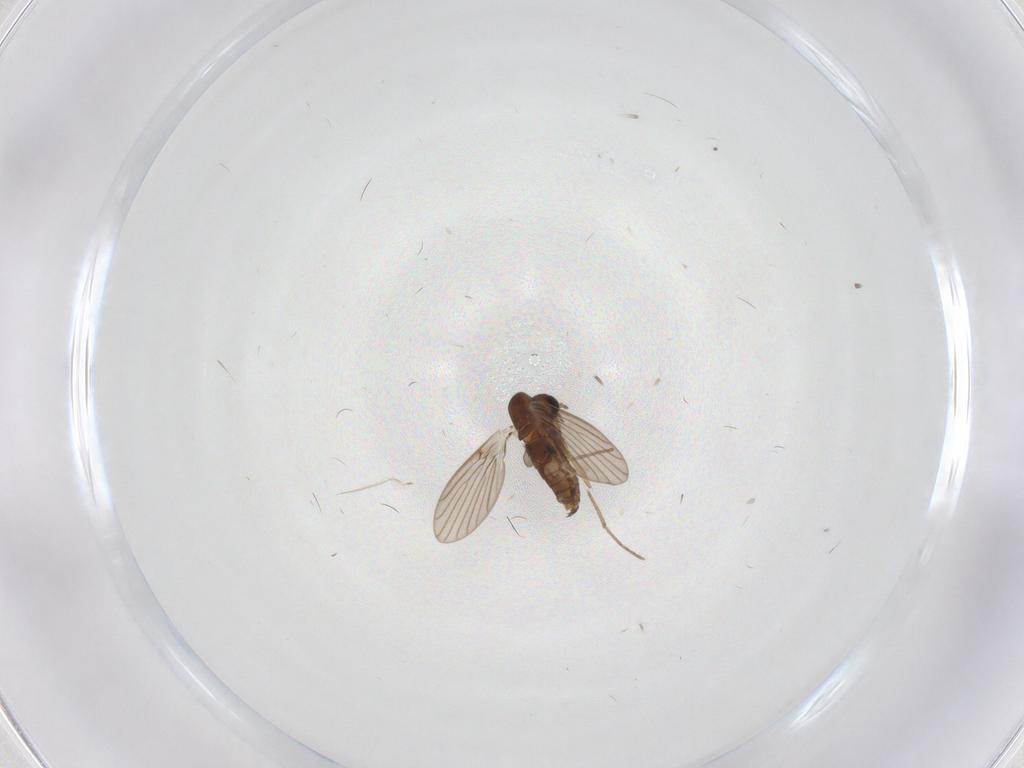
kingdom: Animalia
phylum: Arthropoda
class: Insecta
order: Diptera
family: Psychodidae
